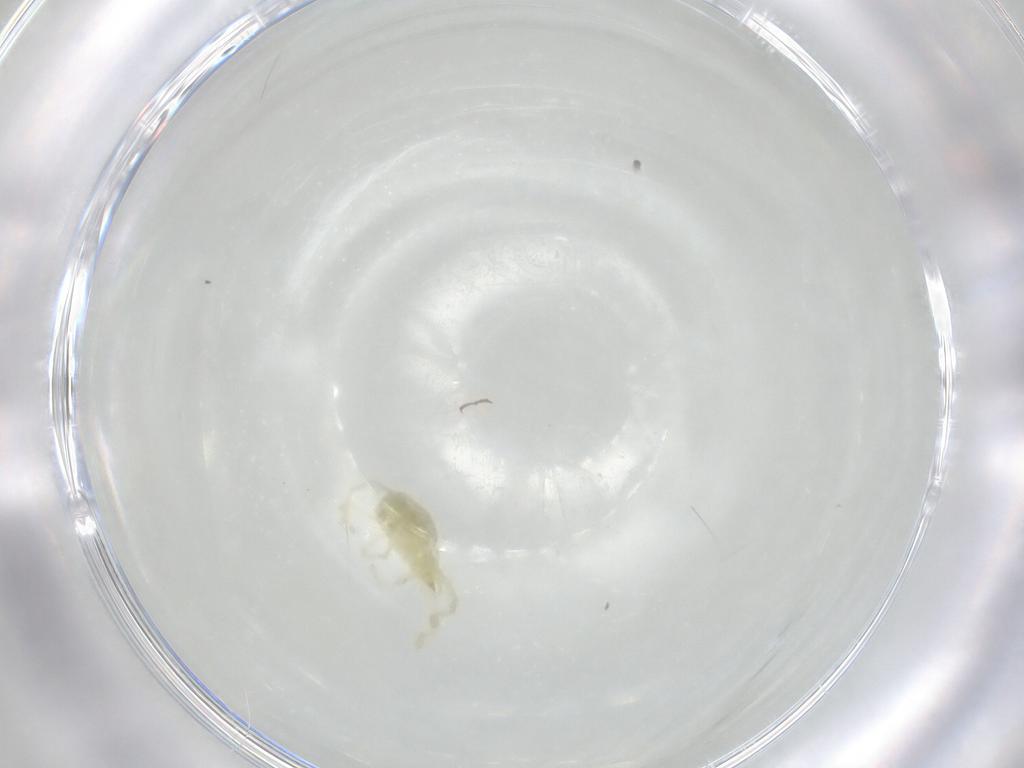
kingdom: Animalia
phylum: Arthropoda
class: Arachnida
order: Trombidiformes
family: Erythraeidae
